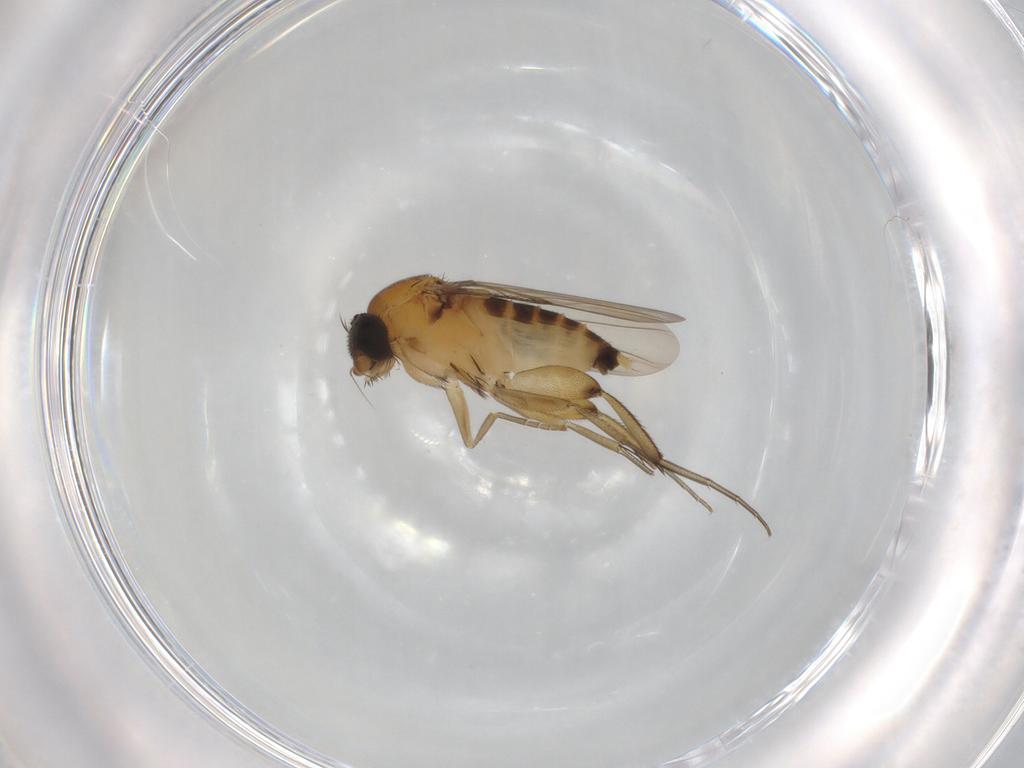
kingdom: Animalia
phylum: Arthropoda
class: Insecta
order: Diptera
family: Phoridae
